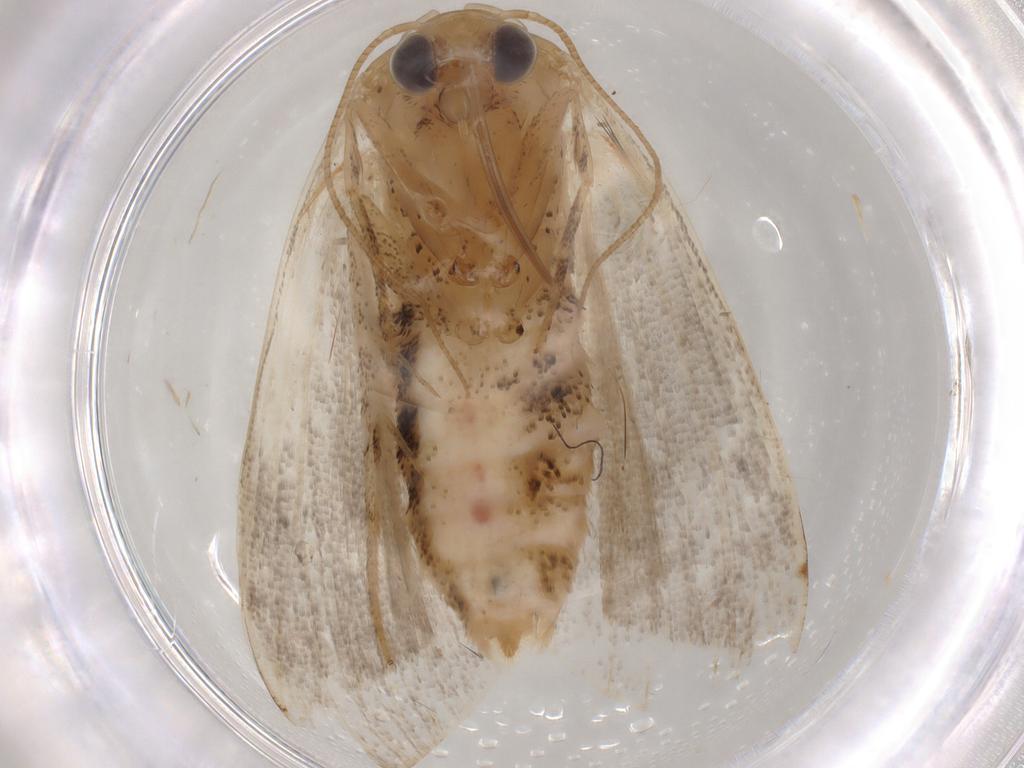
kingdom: Animalia
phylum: Arthropoda
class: Insecta
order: Lepidoptera
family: Nolidae
